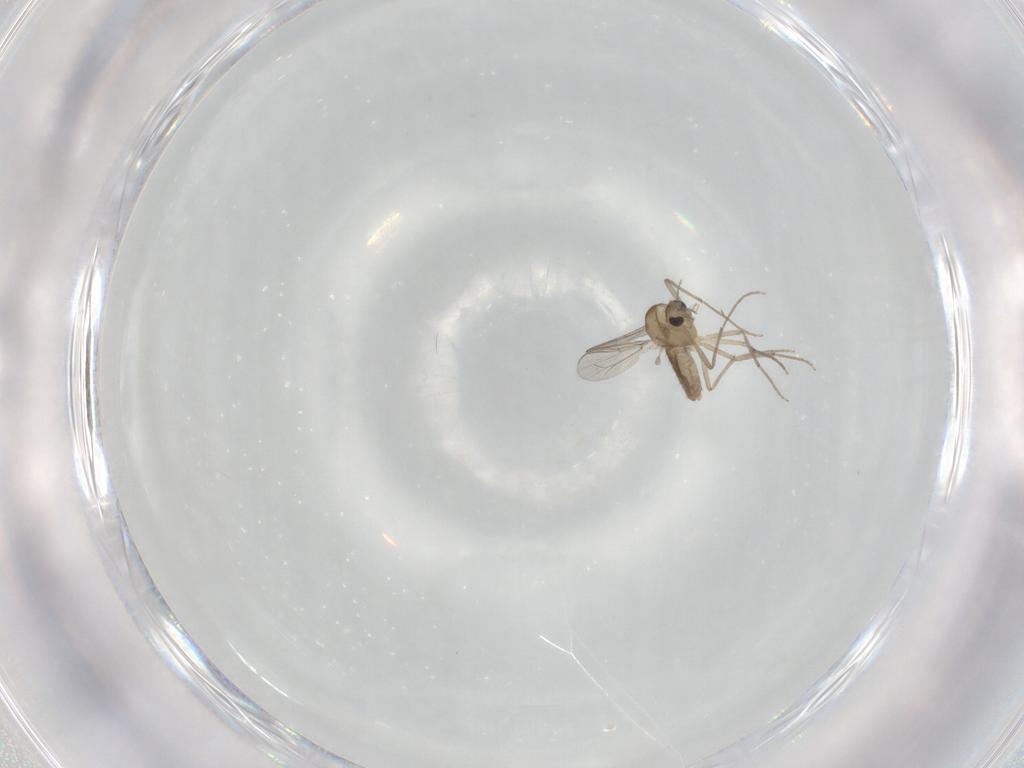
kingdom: Animalia
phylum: Arthropoda
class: Insecta
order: Diptera
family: Chironomidae
